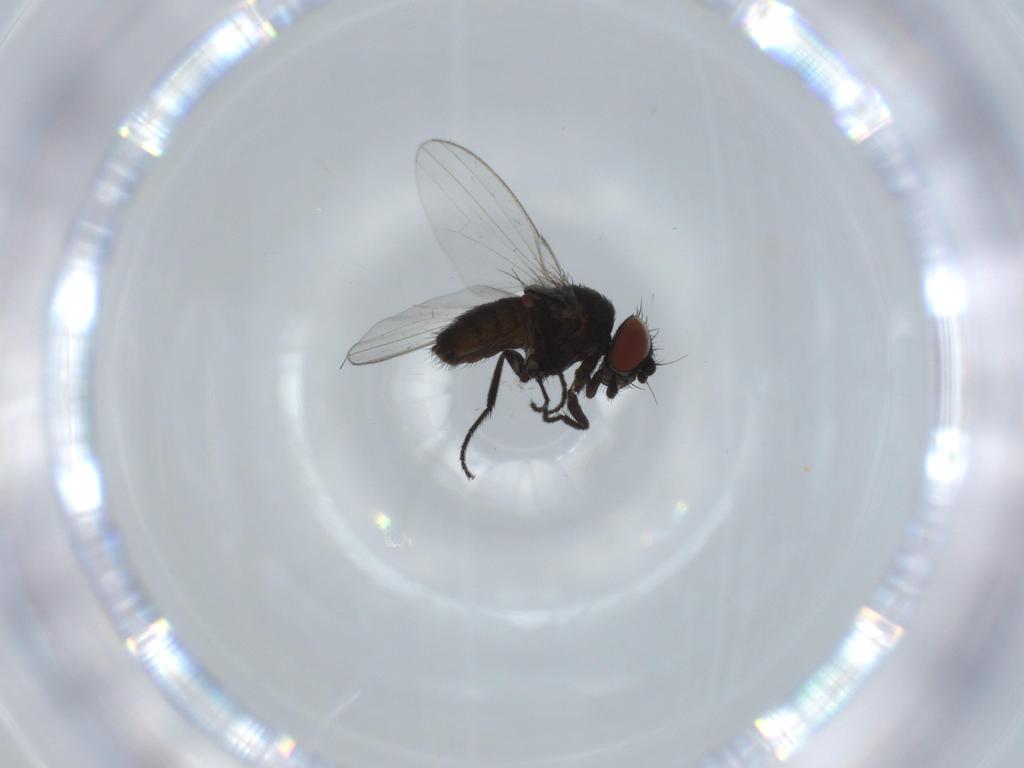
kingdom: Animalia
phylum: Arthropoda
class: Insecta
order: Diptera
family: Milichiidae
